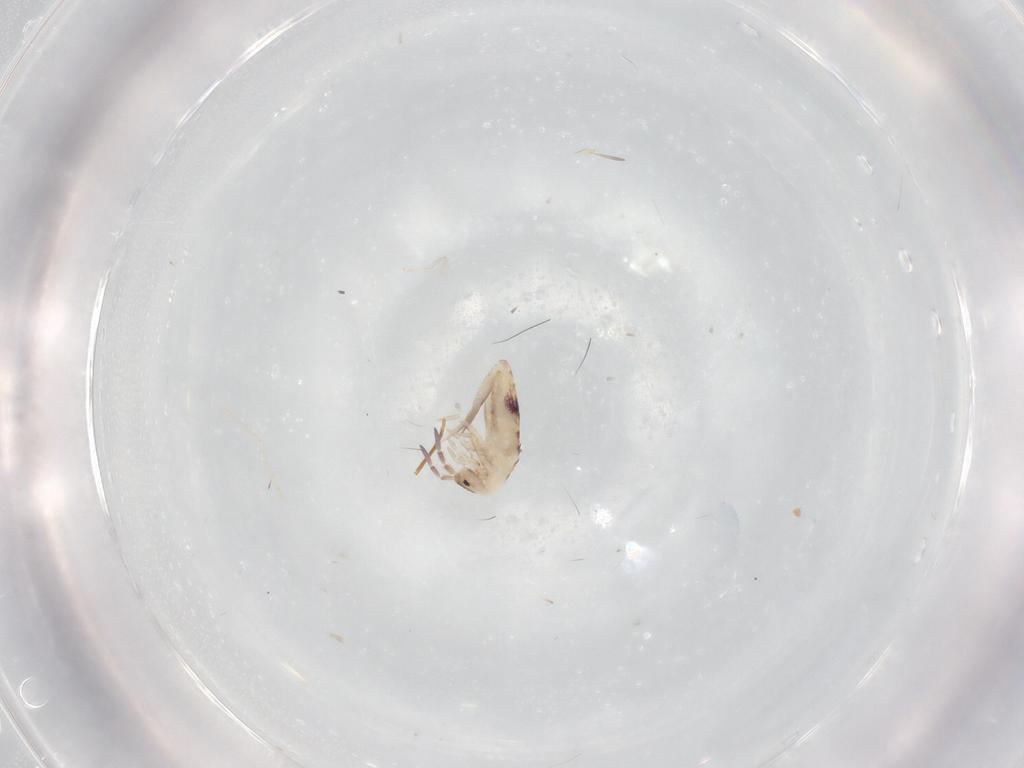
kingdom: Animalia
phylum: Arthropoda
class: Collembola
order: Entomobryomorpha
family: Entomobryidae
